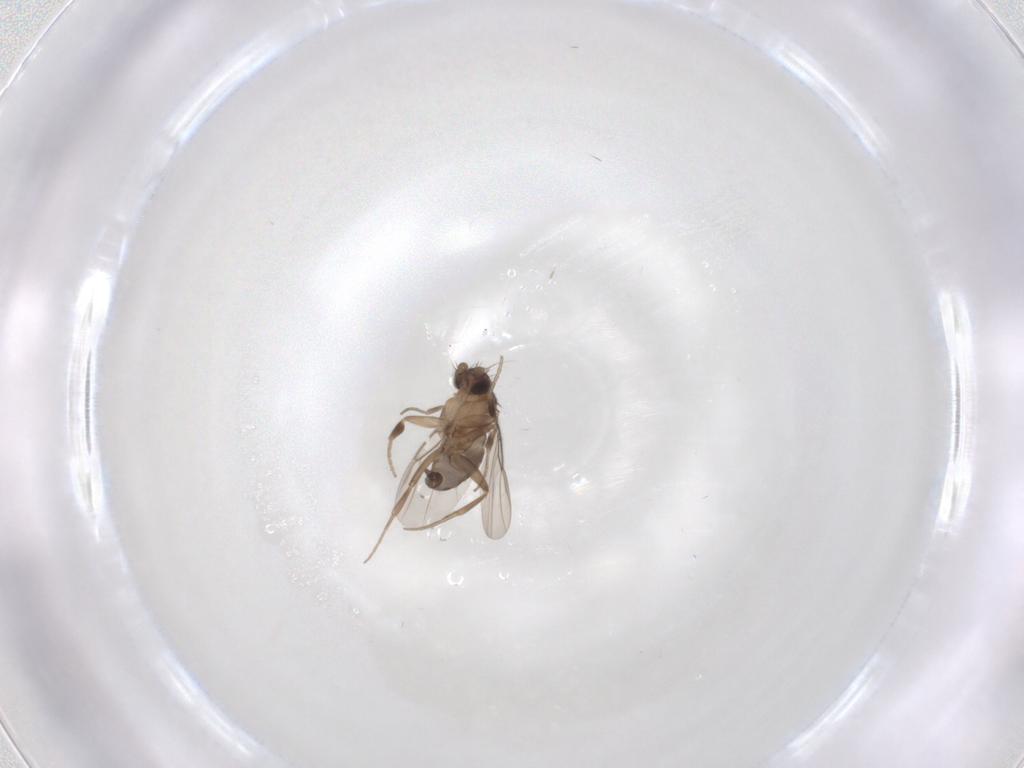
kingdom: Animalia
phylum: Arthropoda
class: Insecta
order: Diptera
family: Phoridae
